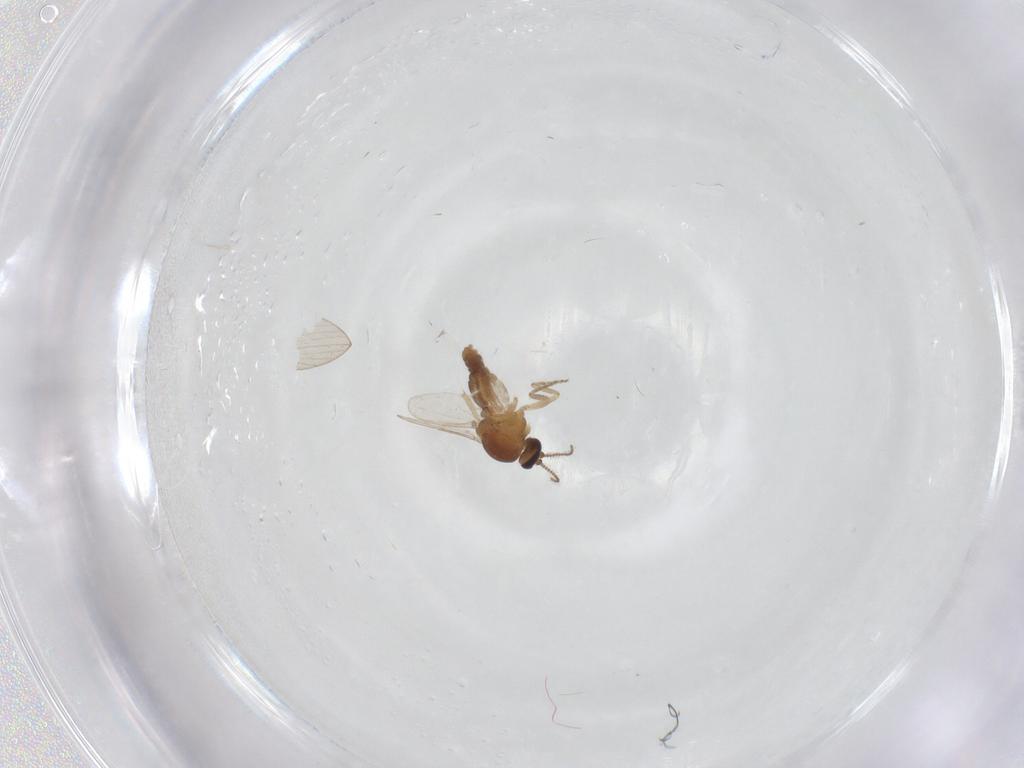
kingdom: Animalia
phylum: Arthropoda
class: Insecta
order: Diptera
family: Ceratopogonidae
